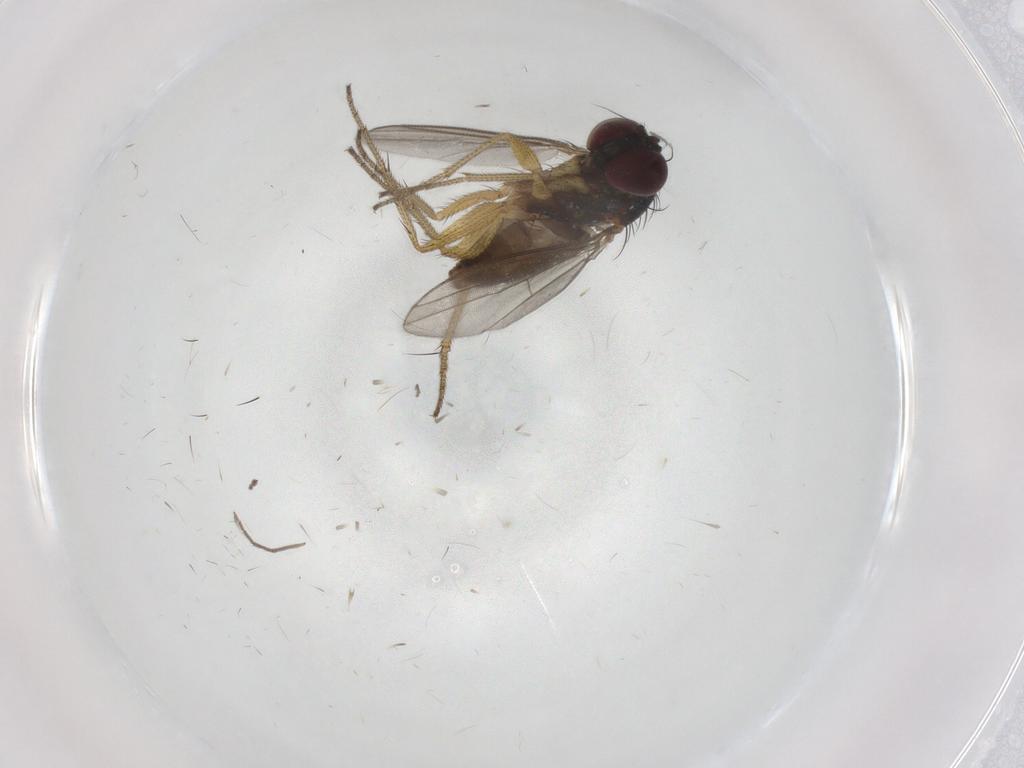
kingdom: Animalia
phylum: Arthropoda
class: Insecta
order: Diptera
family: Dolichopodidae
